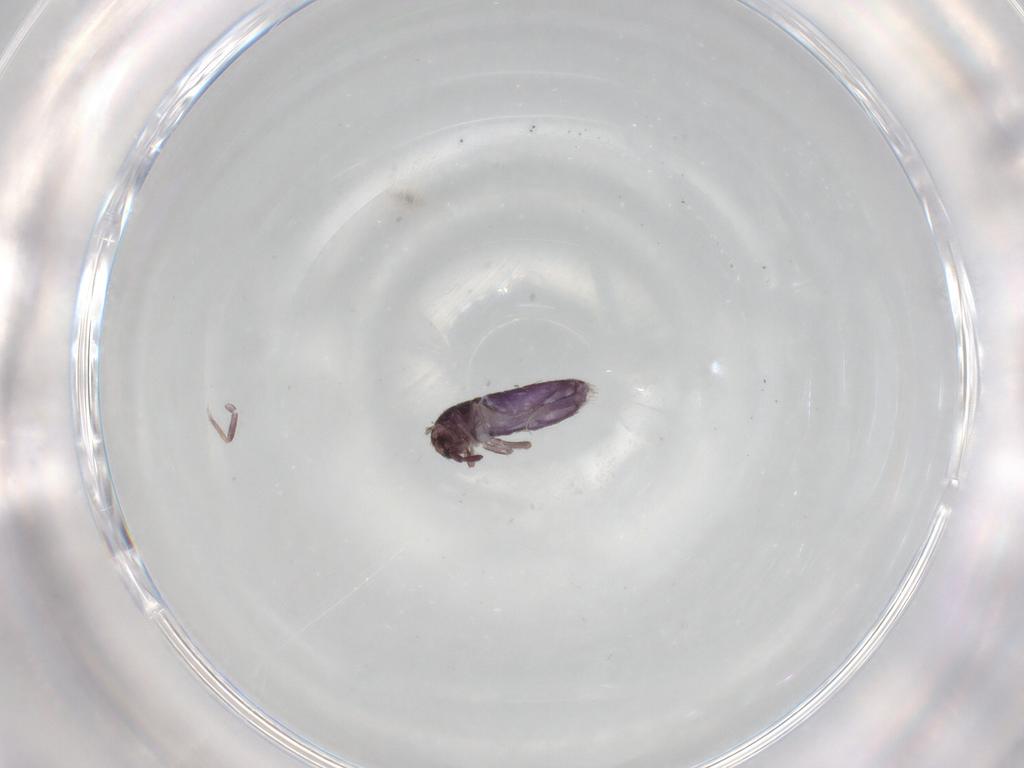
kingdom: Animalia
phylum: Arthropoda
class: Collembola
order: Entomobryomorpha
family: Entomobryidae
